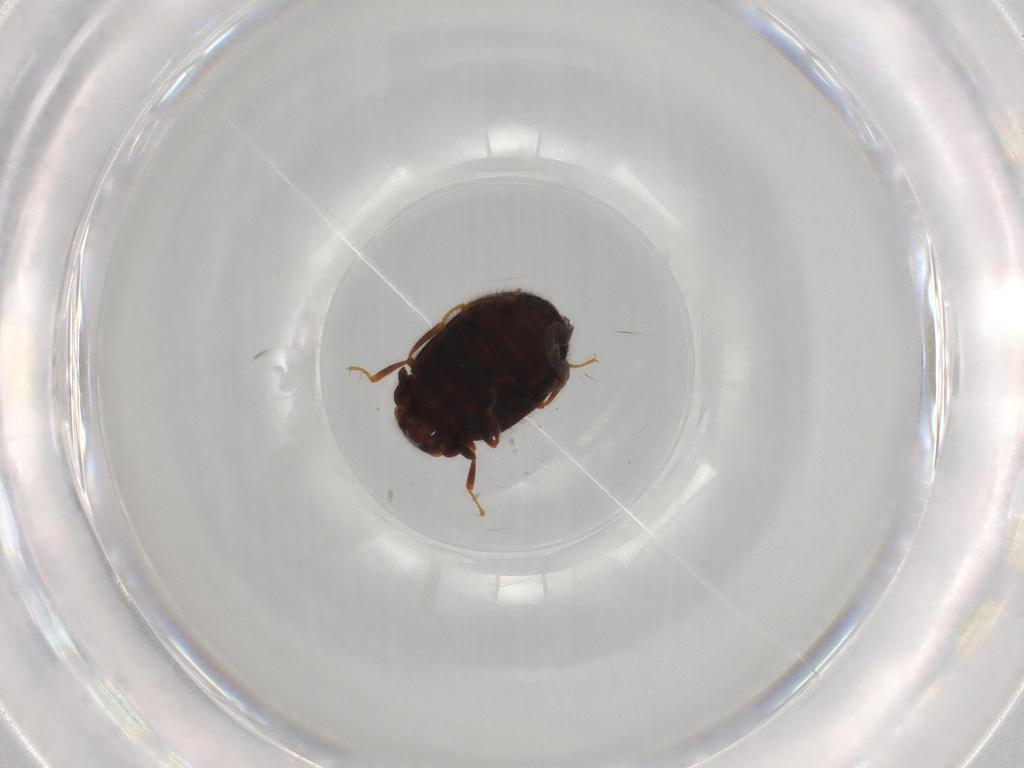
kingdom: Animalia
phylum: Arthropoda
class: Insecta
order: Coleoptera
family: Ptilodactylidae
